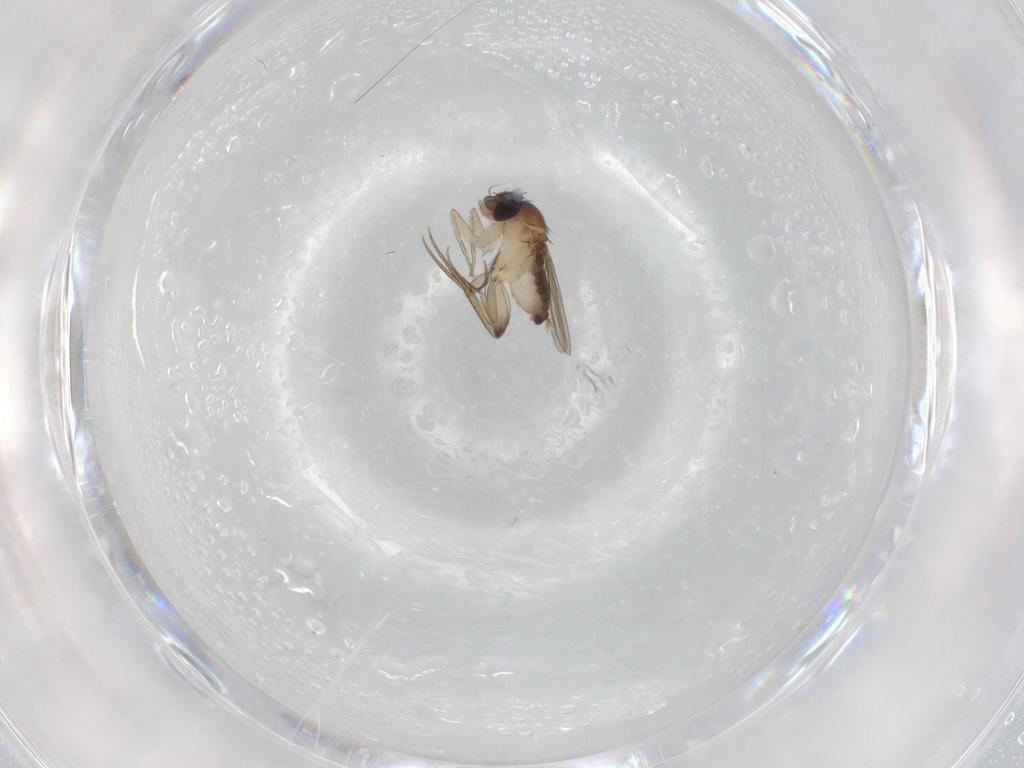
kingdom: Animalia
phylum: Arthropoda
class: Insecta
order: Diptera
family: Phoridae
